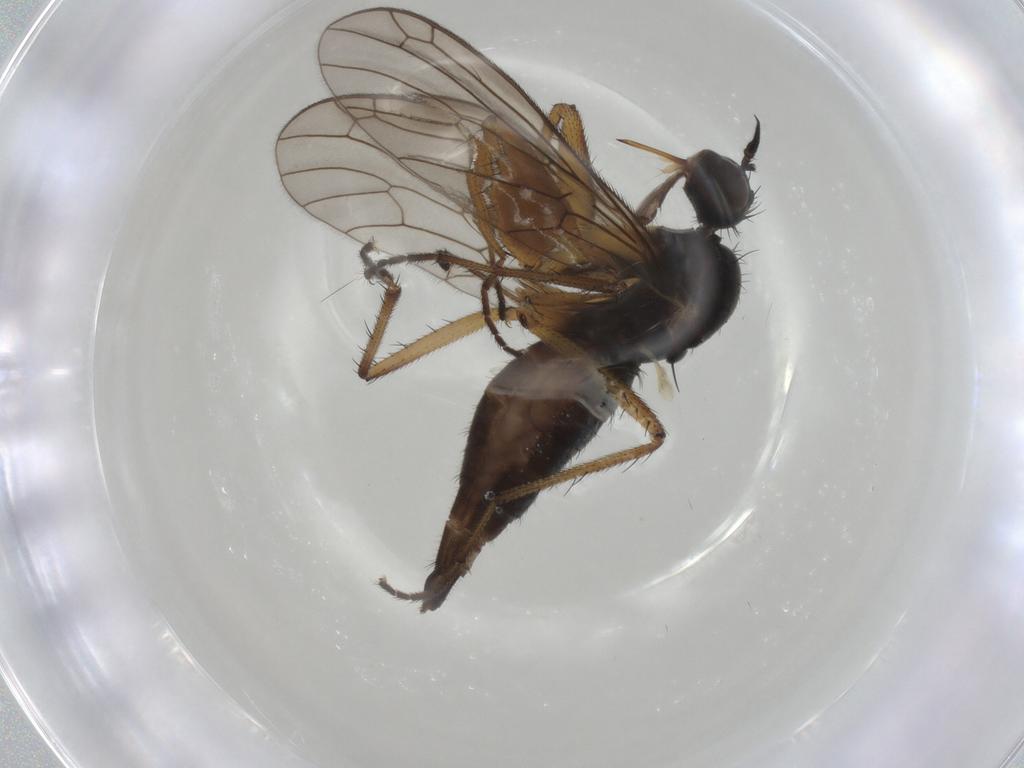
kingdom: Animalia
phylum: Arthropoda
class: Insecta
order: Diptera
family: Empididae
